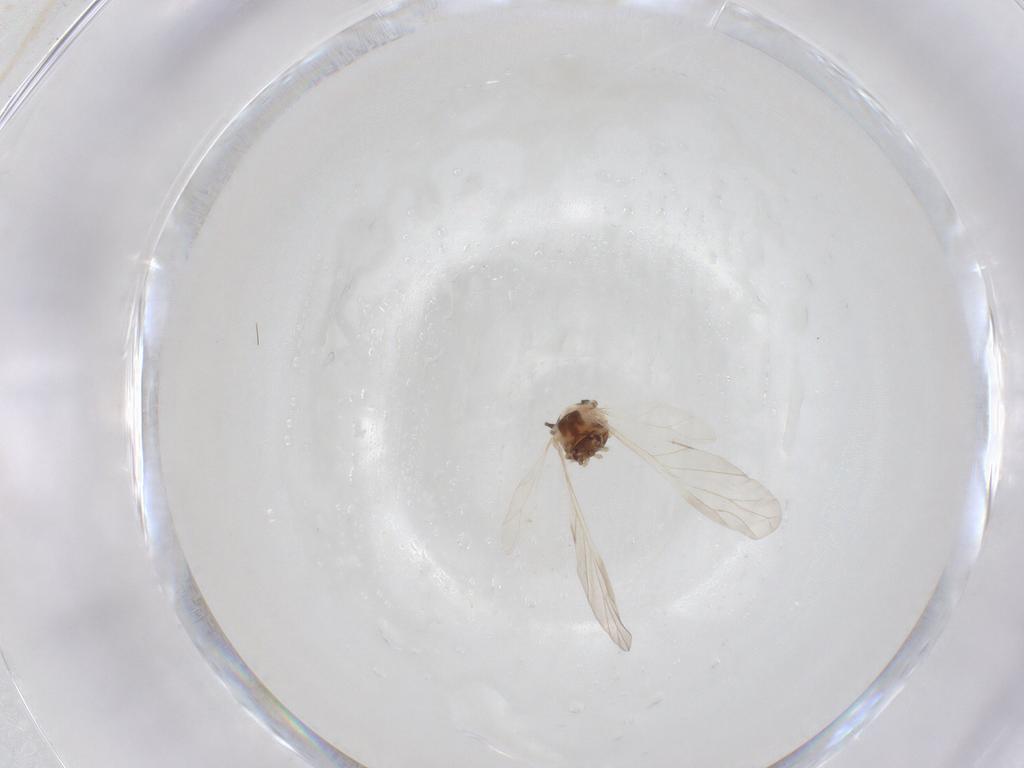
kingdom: Animalia
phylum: Arthropoda
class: Insecta
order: Hemiptera
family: Aphididae
